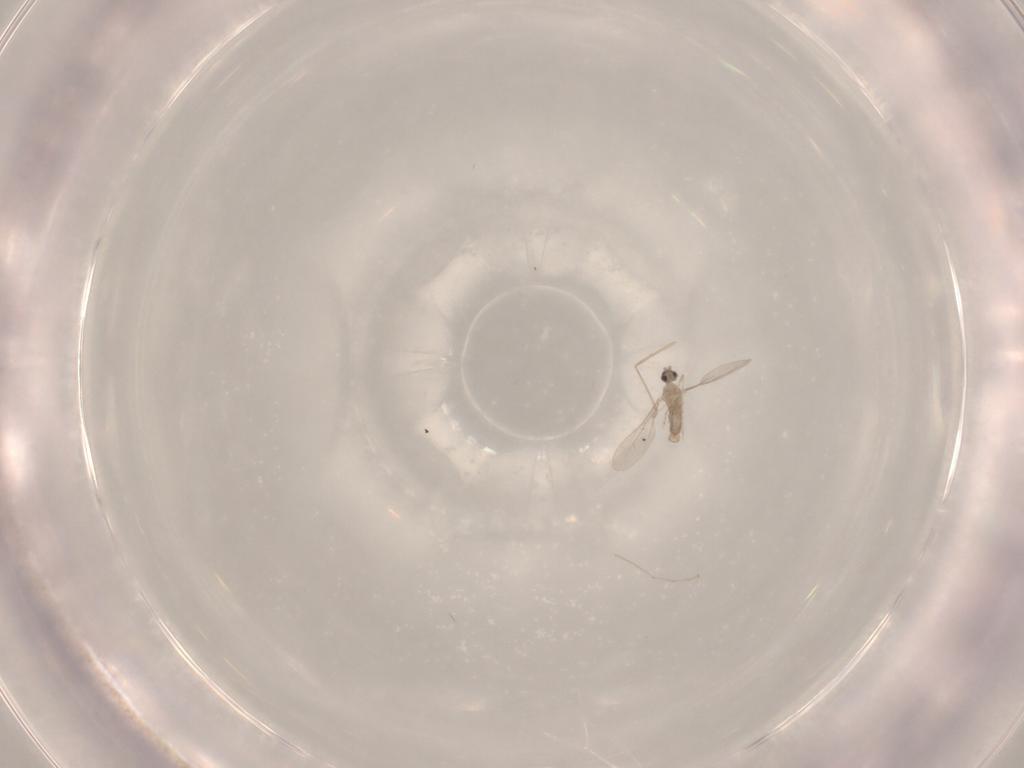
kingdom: Animalia
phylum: Arthropoda
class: Insecta
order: Diptera
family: Cecidomyiidae
